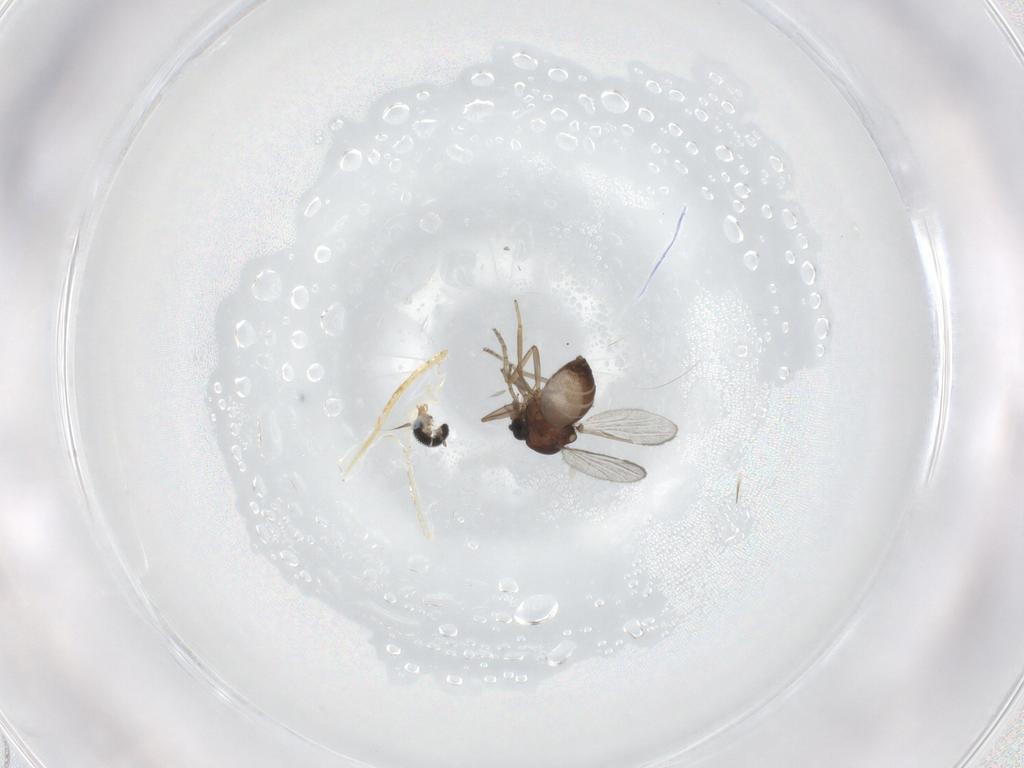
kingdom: Animalia
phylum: Arthropoda
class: Insecta
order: Diptera
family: Ceratopogonidae
